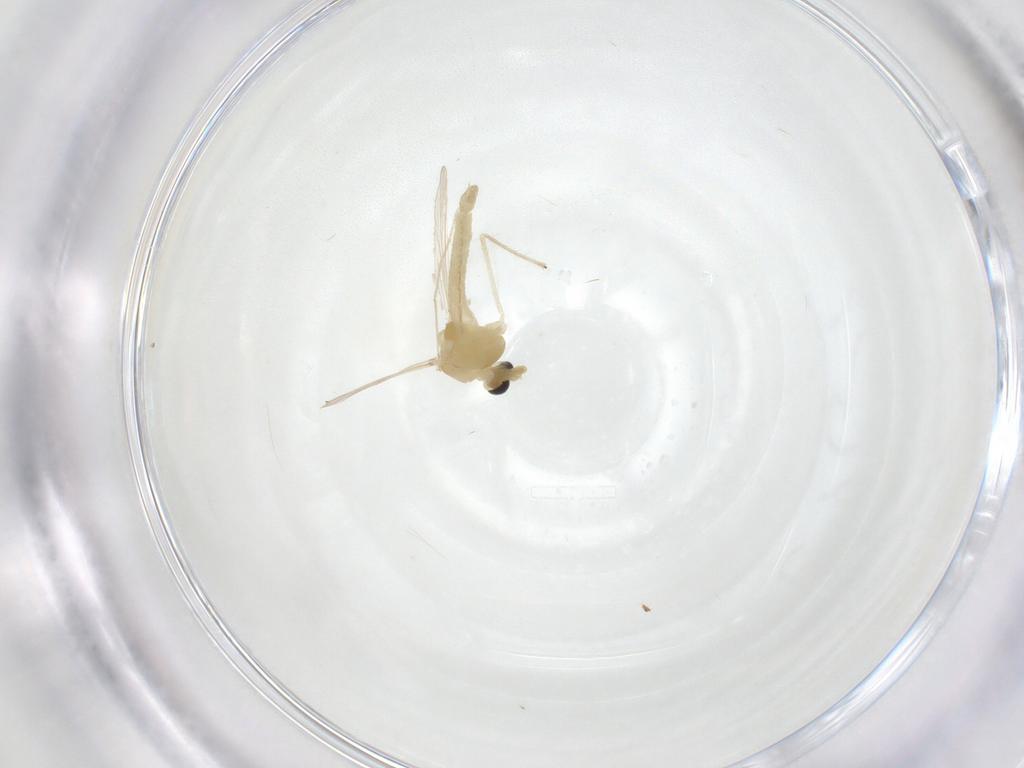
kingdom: Animalia
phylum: Arthropoda
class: Insecta
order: Diptera
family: Chironomidae
